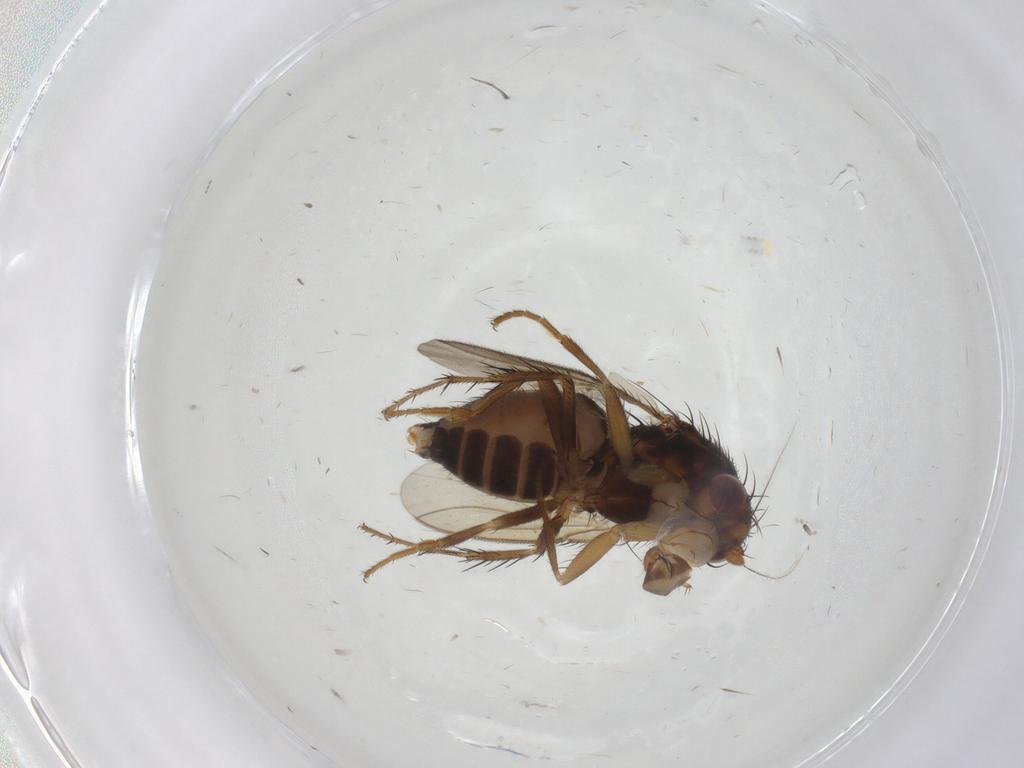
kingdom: Animalia
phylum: Arthropoda
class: Insecta
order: Diptera
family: Sphaeroceridae
